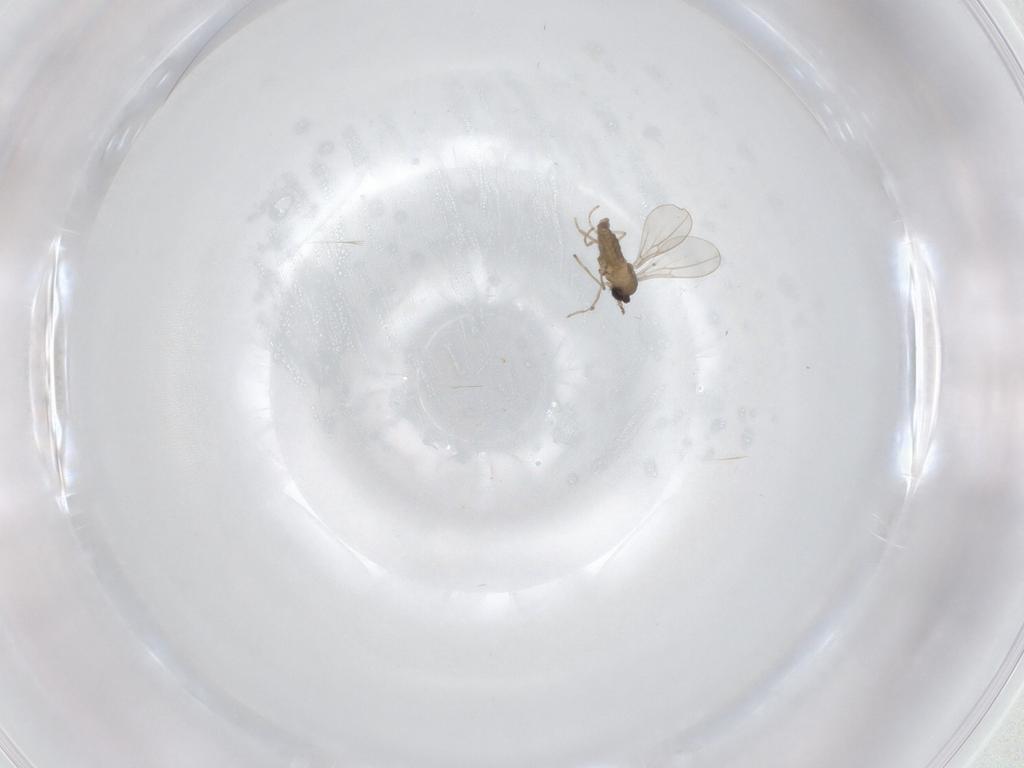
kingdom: Animalia
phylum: Arthropoda
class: Insecta
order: Diptera
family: Cecidomyiidae
